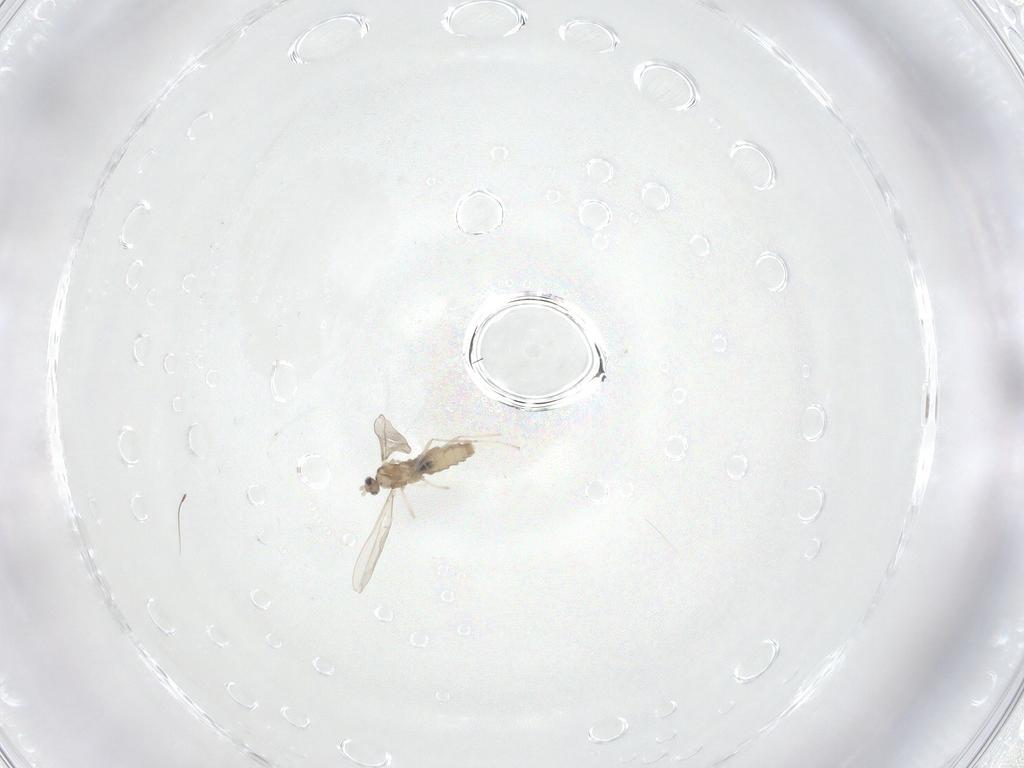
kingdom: Animalia
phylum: Arthropoda
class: Insecta
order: Diptera
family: Cecidomyiidae
